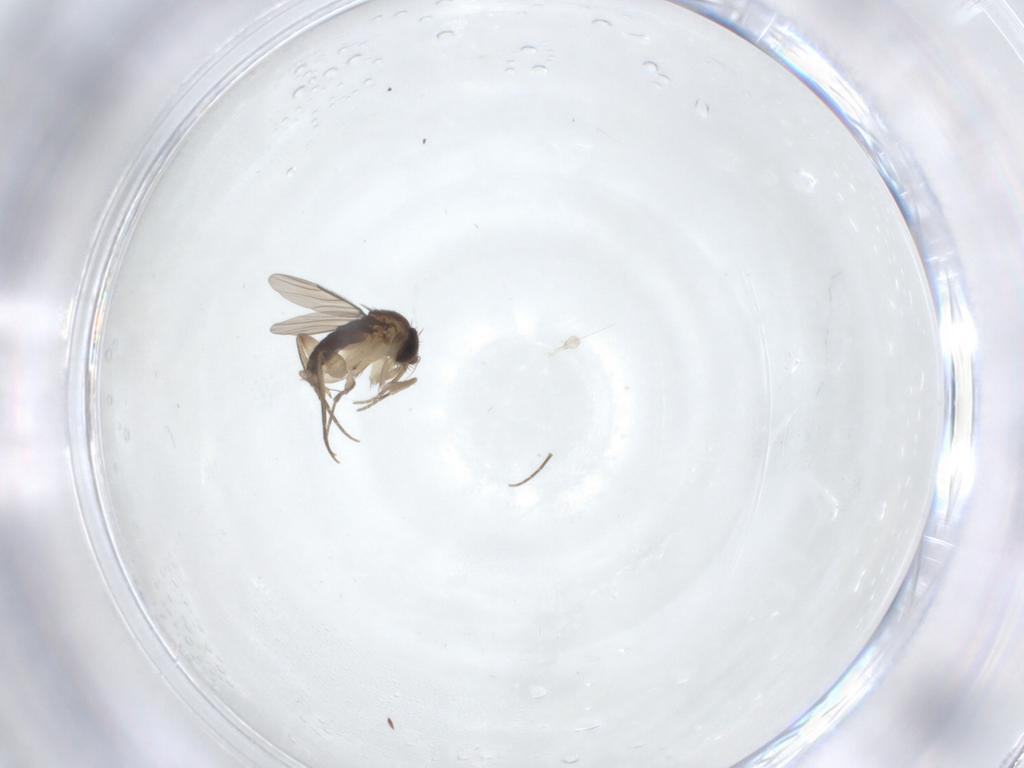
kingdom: Animalia
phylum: Arthropoda
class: Insecta
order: Diptera
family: Phoridae
